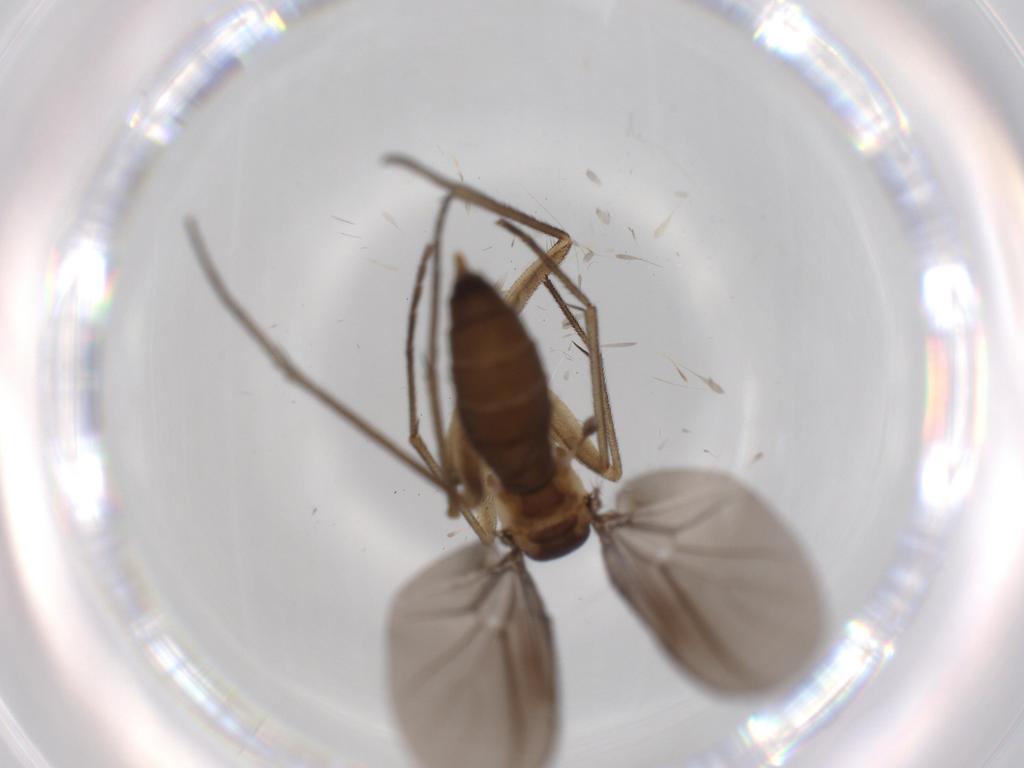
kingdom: Animalia
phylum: Arthropoda
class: Insecta
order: Diptera
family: Diadocidiidae
